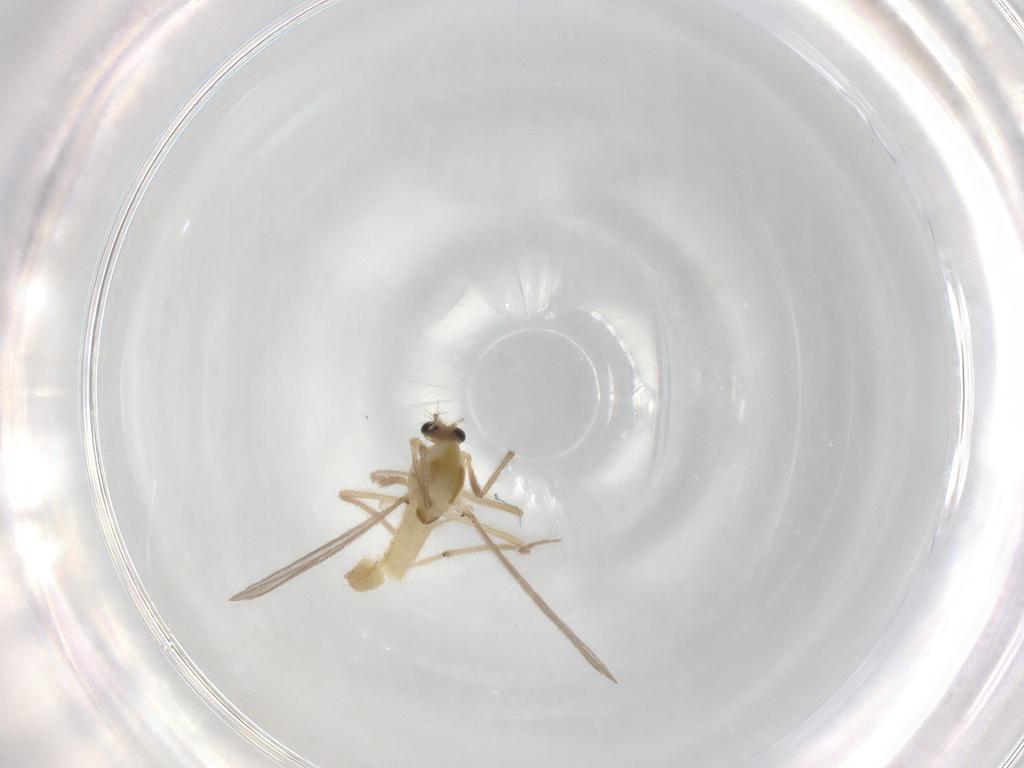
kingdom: Animalia
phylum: Arthropoda
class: Insecta
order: Diptera
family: Chironomidae
